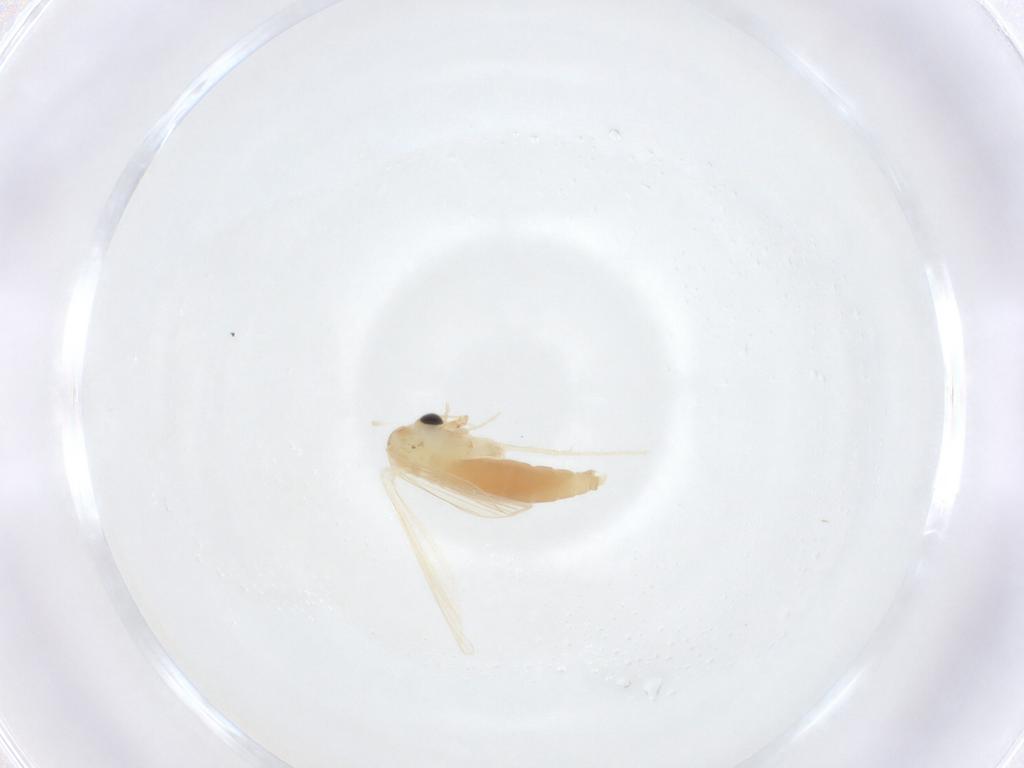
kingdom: Animalia
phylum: Arthropoda
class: Insecta
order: Diptera
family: Psychodidae
